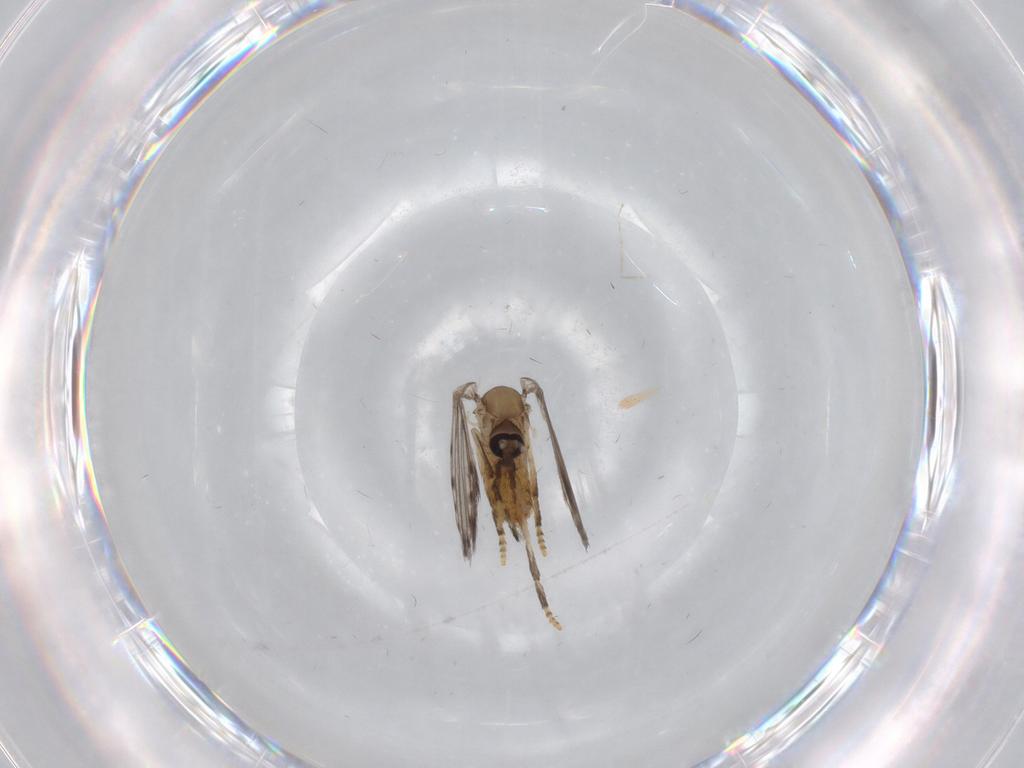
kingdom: Animalia
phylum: Arthropoda
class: Insecta
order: Diptera
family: Psychodidae
